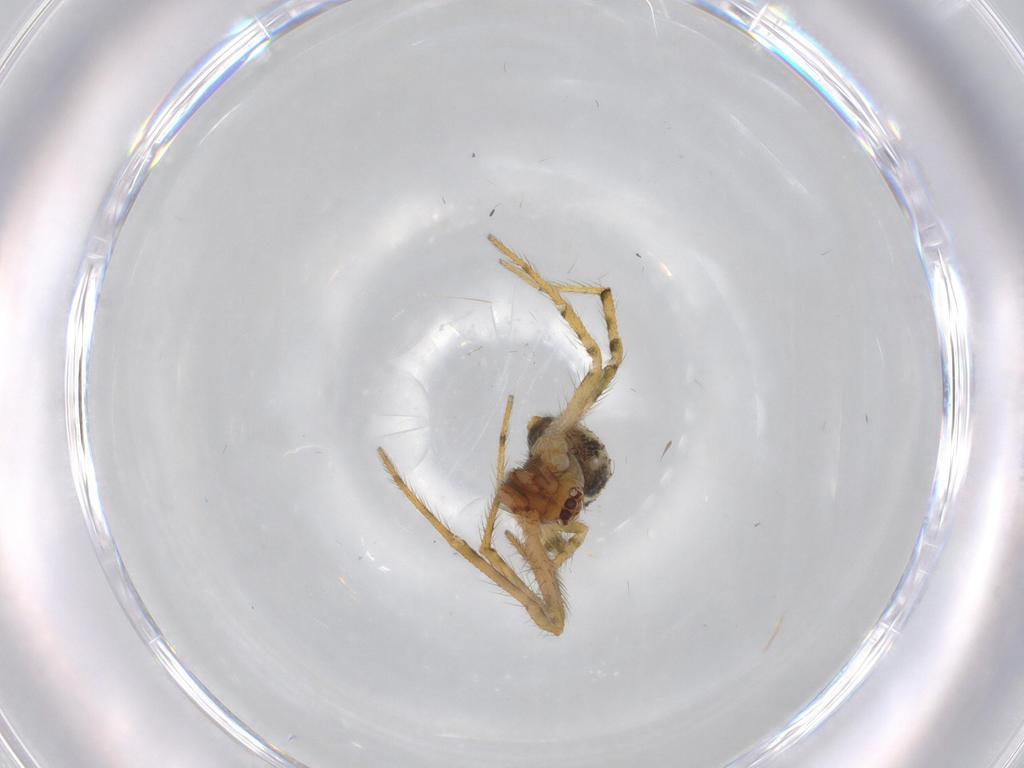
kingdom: Animalia
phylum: Arthropoda
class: Arachnida
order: Araneae
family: Theridiidae
